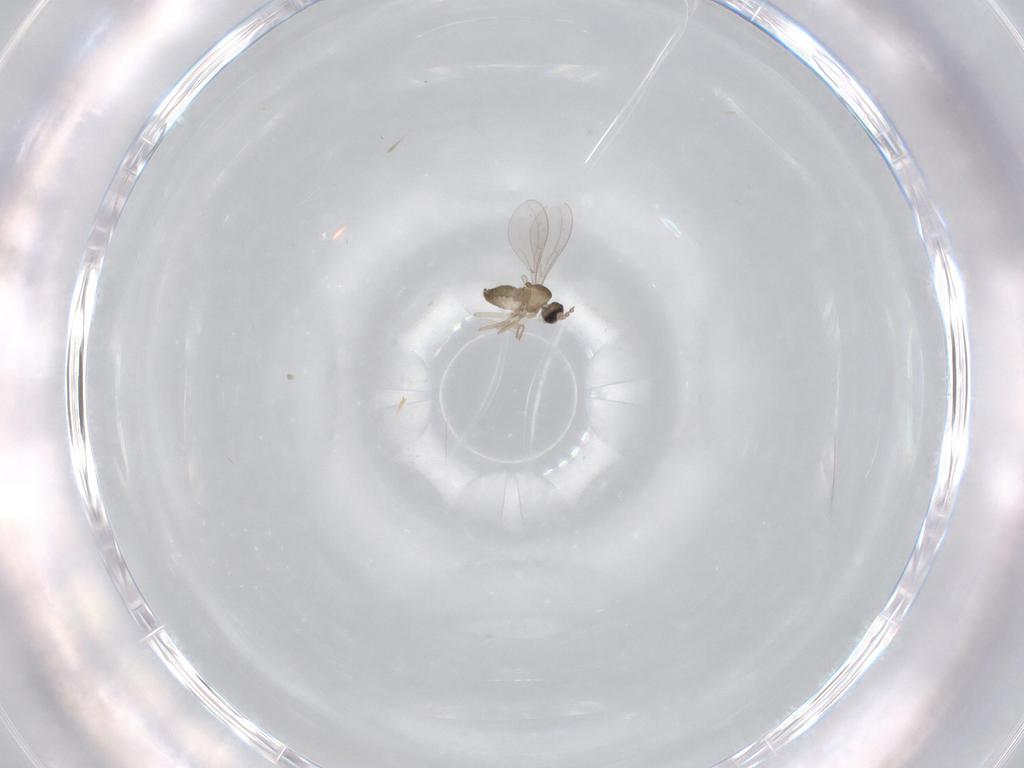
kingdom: Animalia
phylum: Arthropoda
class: Insecta
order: Diptera
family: Cecidomyiidae
